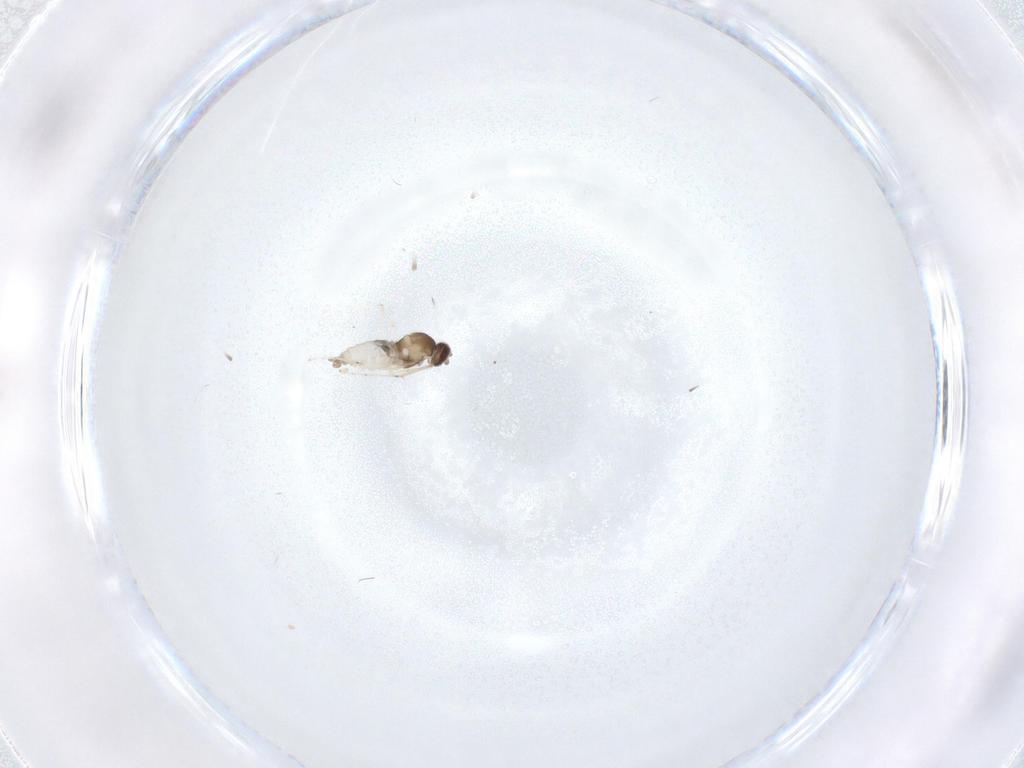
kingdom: Animalia
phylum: Arthropoda
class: Insecta
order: Diptera
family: Cecidomyiidae
